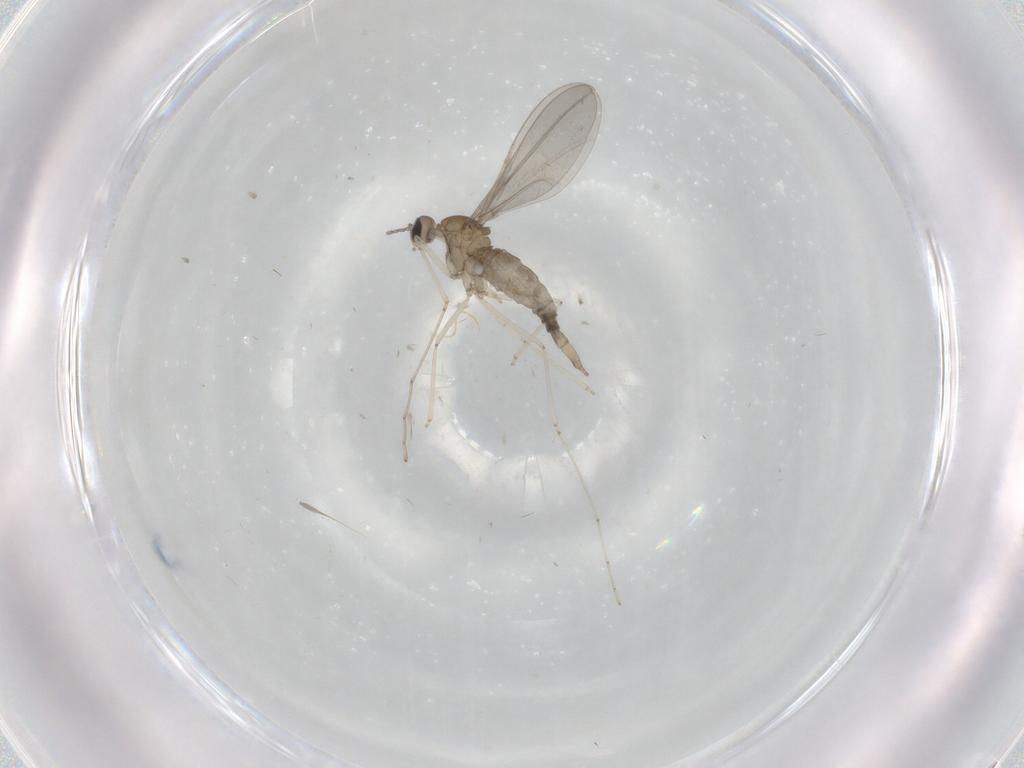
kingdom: Animalia
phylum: Arthropoda
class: Insecta
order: Diptera
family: Cecidomyiidae
